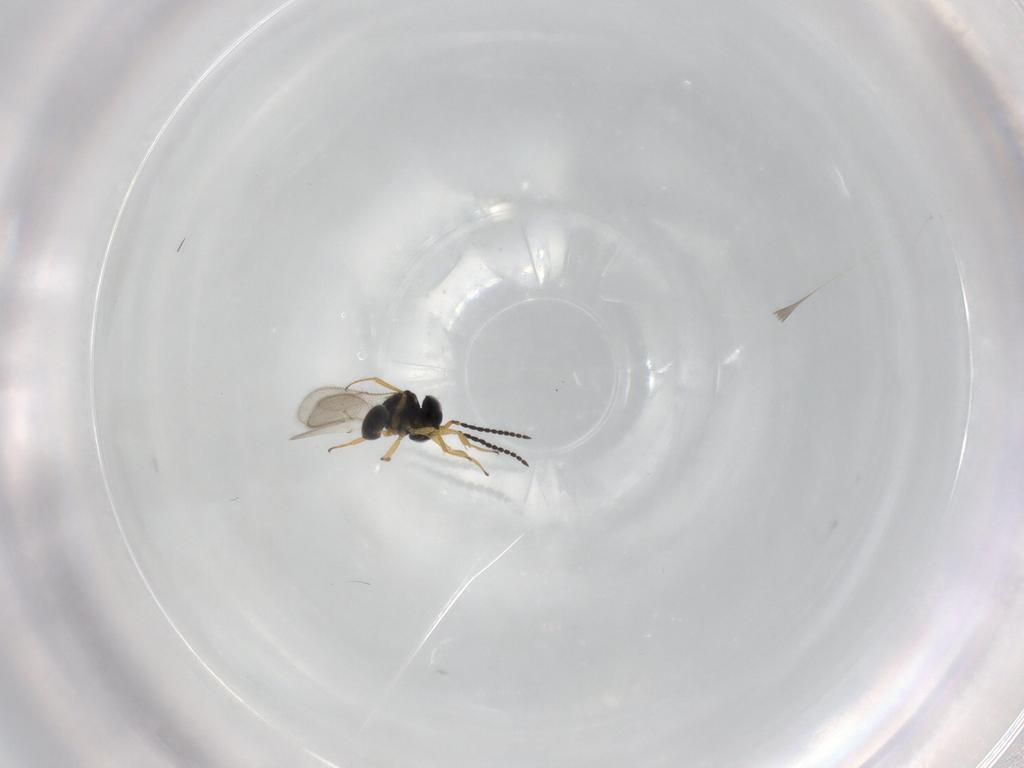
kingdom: Animalia
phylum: Arthropoda
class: Insecta
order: Hymenoptera
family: Scelionidae
